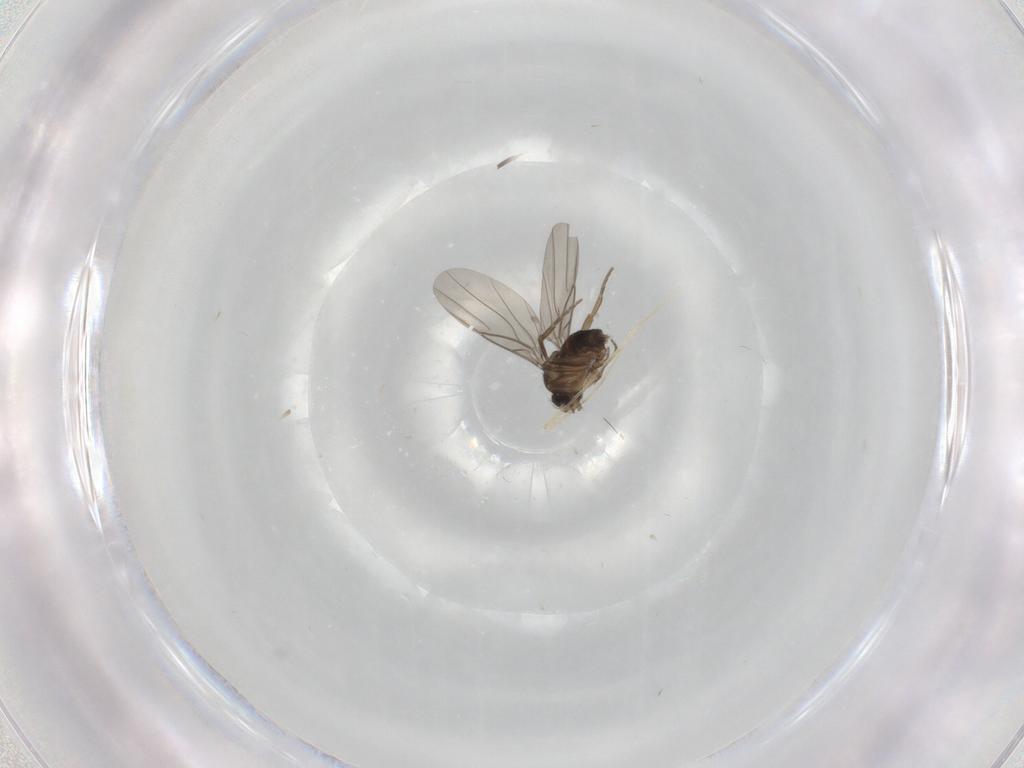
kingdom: Animalia
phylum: Arthropoda
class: Insecta
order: Diptera
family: Phoridae
